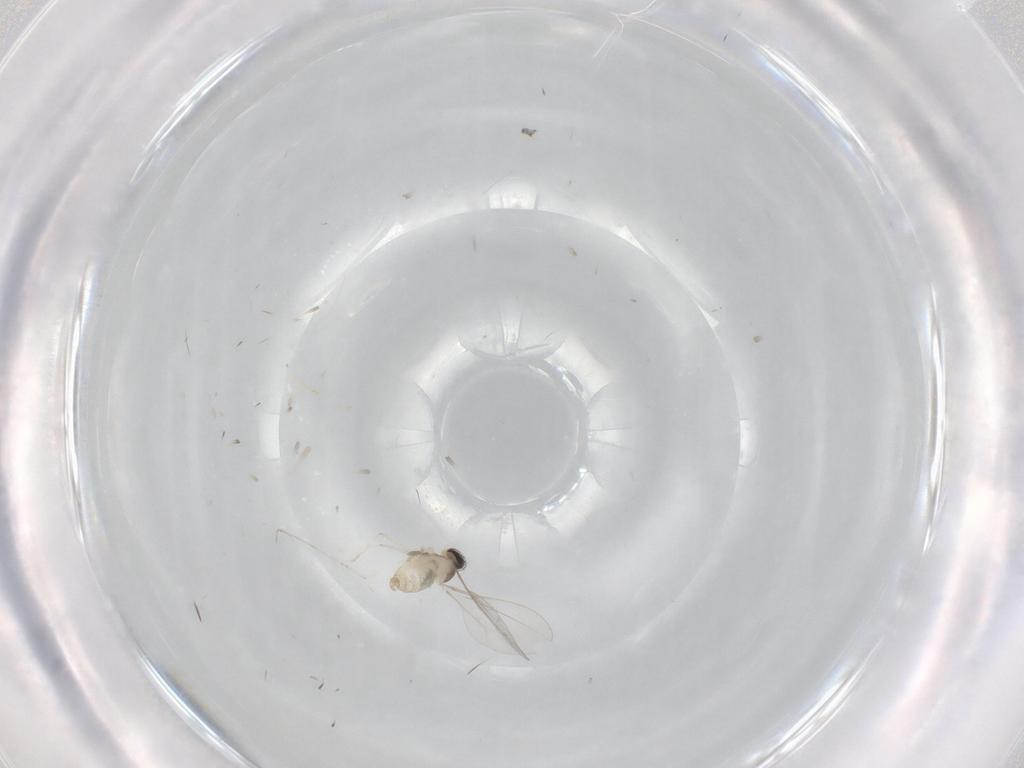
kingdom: Animalia
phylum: Arthropoda
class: Insecta
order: Diptera
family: Cecidomyiidae
